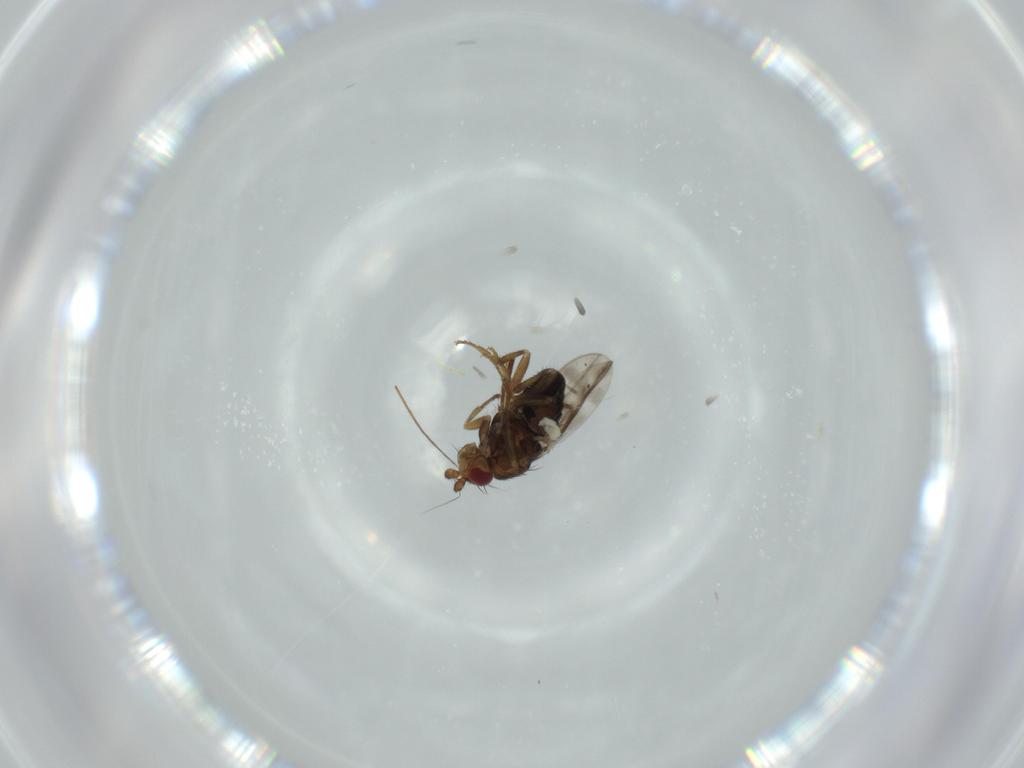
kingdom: Animalia
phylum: Arthropoda
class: Insecta
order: Diptera
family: Sphaeroceridae
